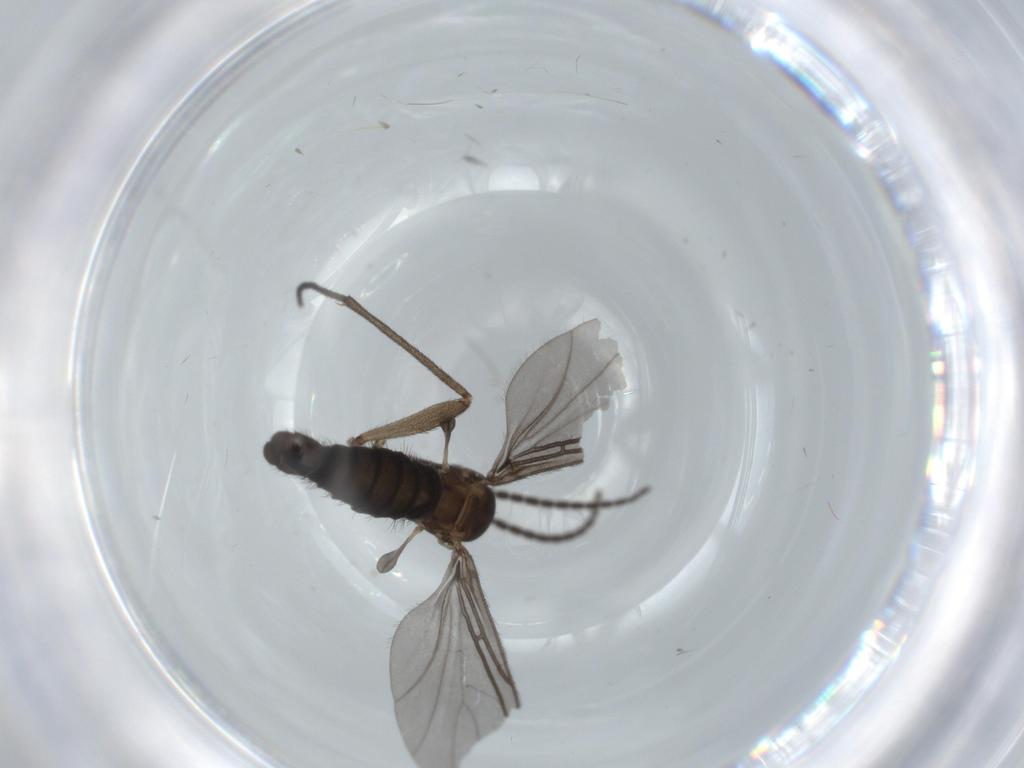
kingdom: Animalia
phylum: Arthropoda
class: Insecta
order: Diptera
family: Sciaridae
